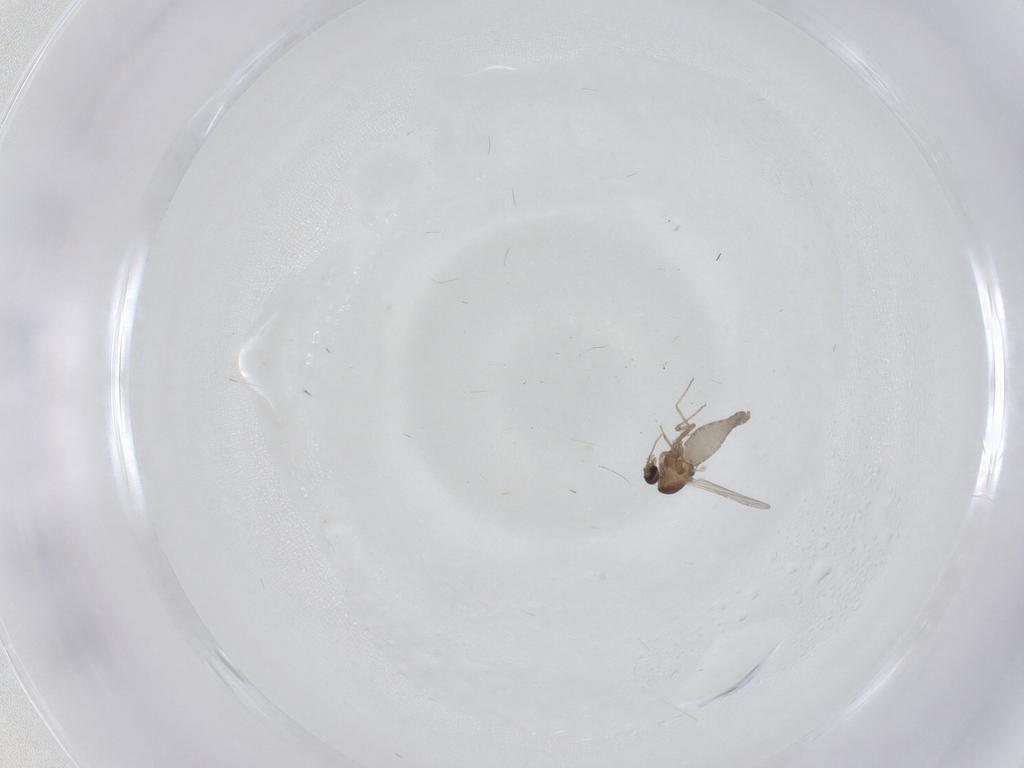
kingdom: Animalia
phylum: Arthropoda
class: Insecta
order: Diptera
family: Ceratopogonidae
